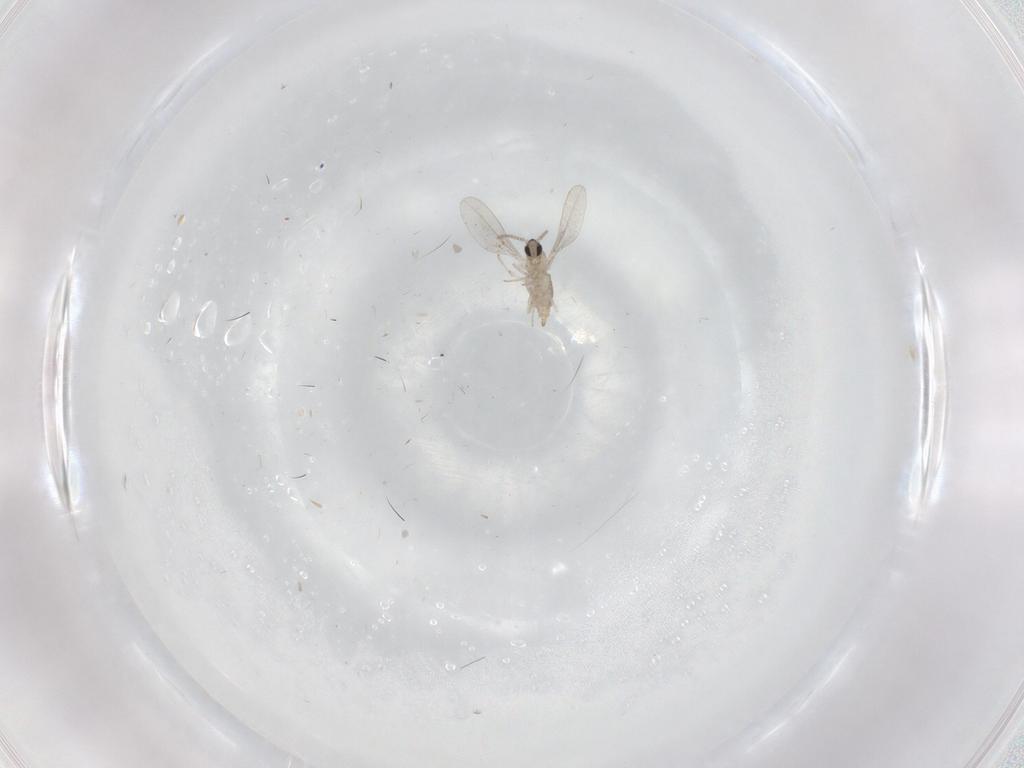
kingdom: Animalia
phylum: Arthropoda
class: Insecta
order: Diptera
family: Cecidomyiidae
